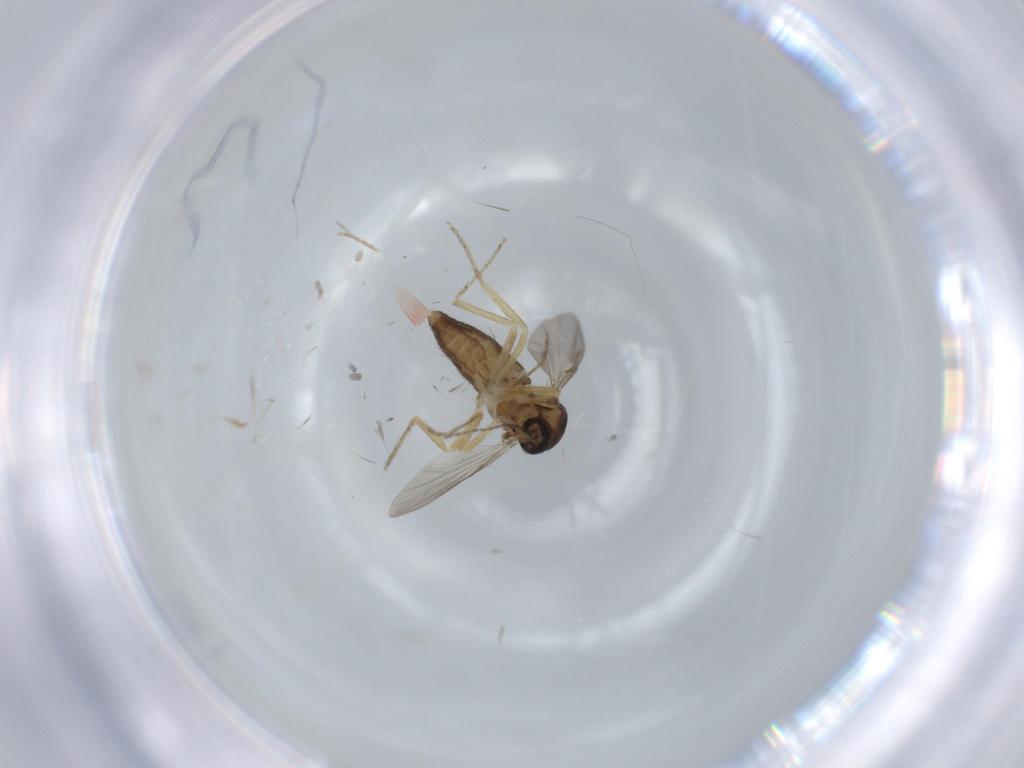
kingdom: Animalia
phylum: Arthropoda
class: Insecta
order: Diptera
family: Ceratopogonidae
